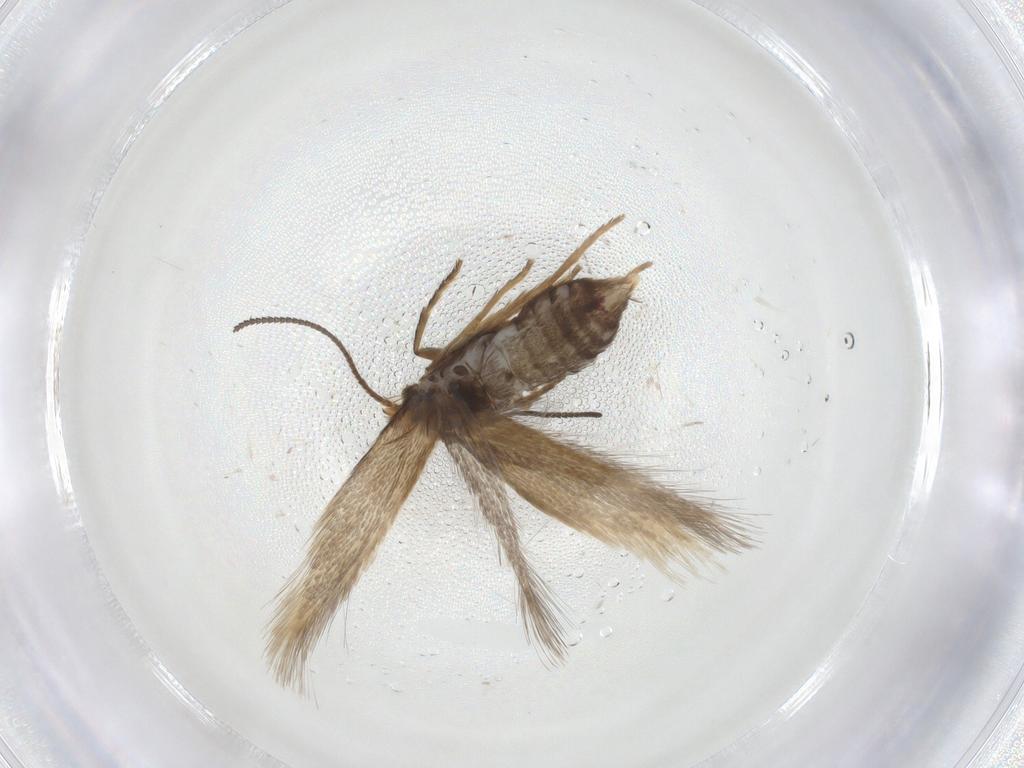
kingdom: Animalia
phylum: Arthropoda
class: Insecta
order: Lepidoptera
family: Nepticulidae
